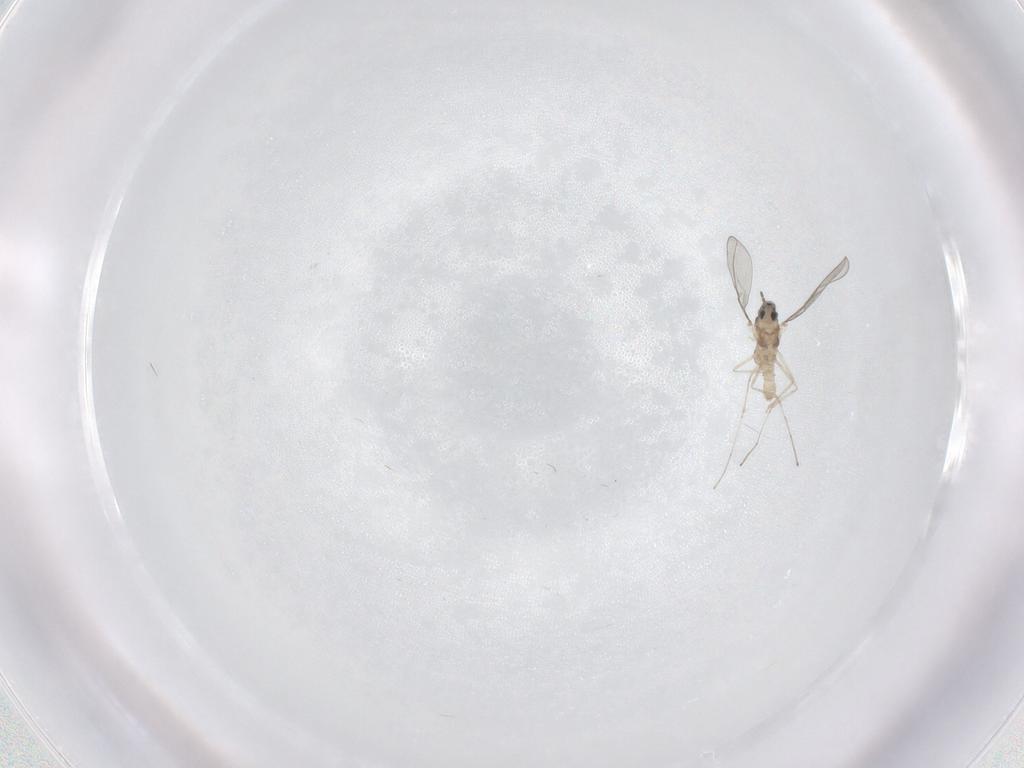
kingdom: Animalia
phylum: Arthropoda
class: Insecta
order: Diptera
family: Cecidomyiidae
